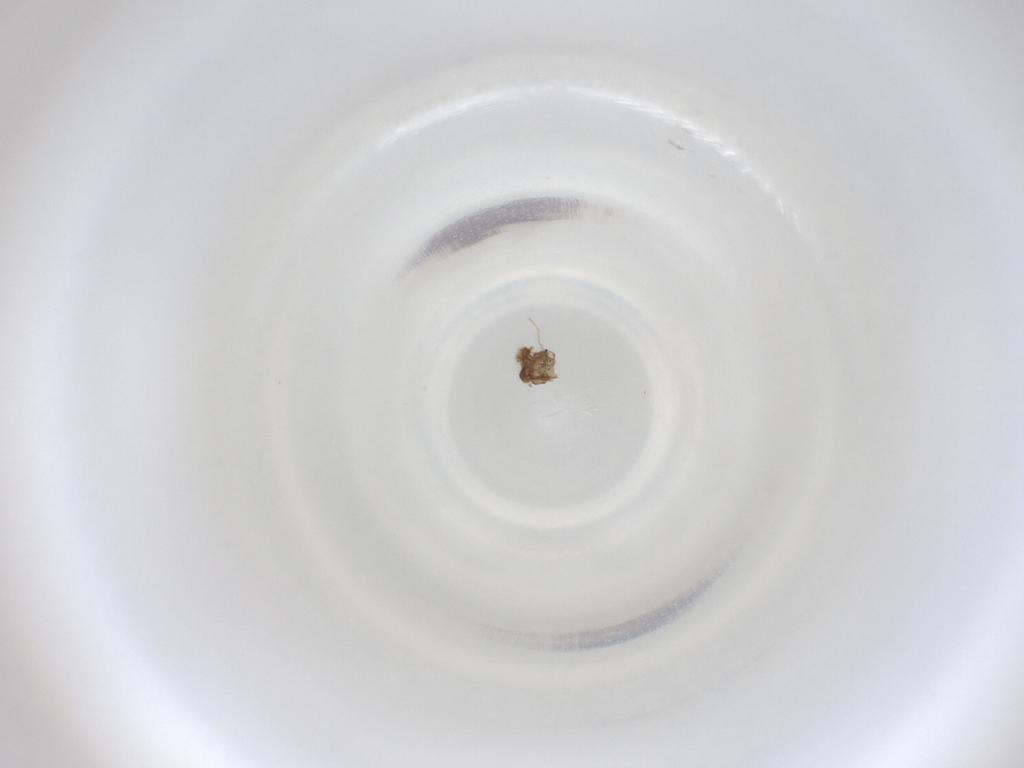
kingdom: Animalia
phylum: Arthropoda
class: Insecta
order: Diptera
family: Cecidomyiidae
